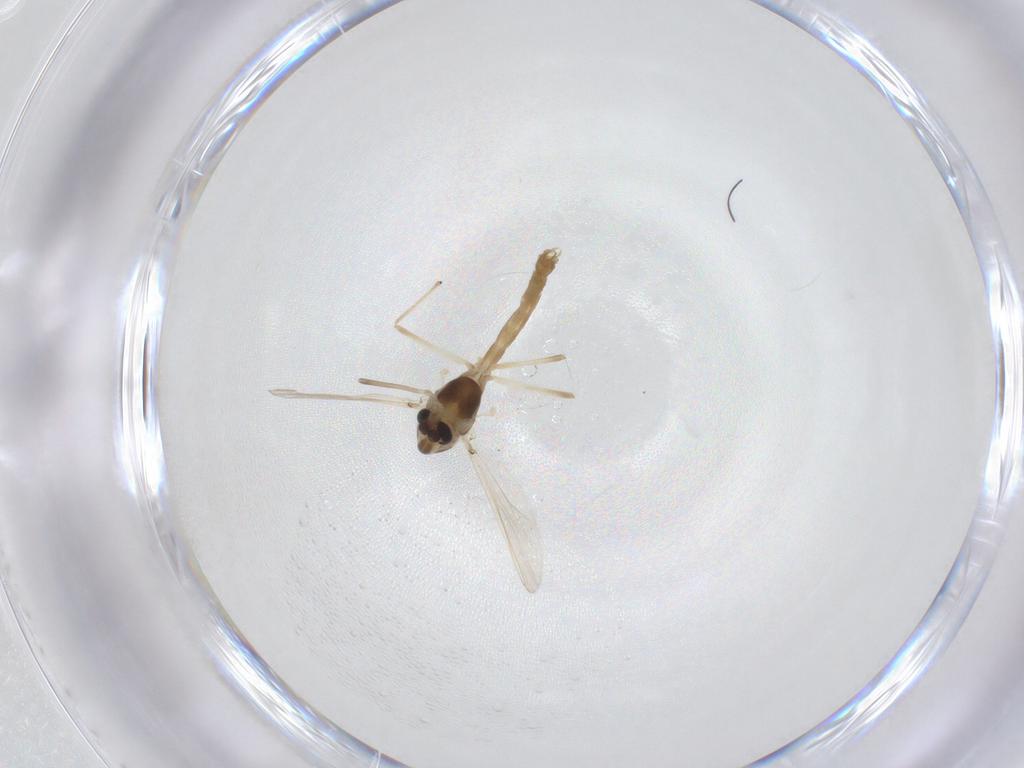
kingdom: Animalia
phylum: Arthropoda
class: Insecta
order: Diptera
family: Chironomidae
